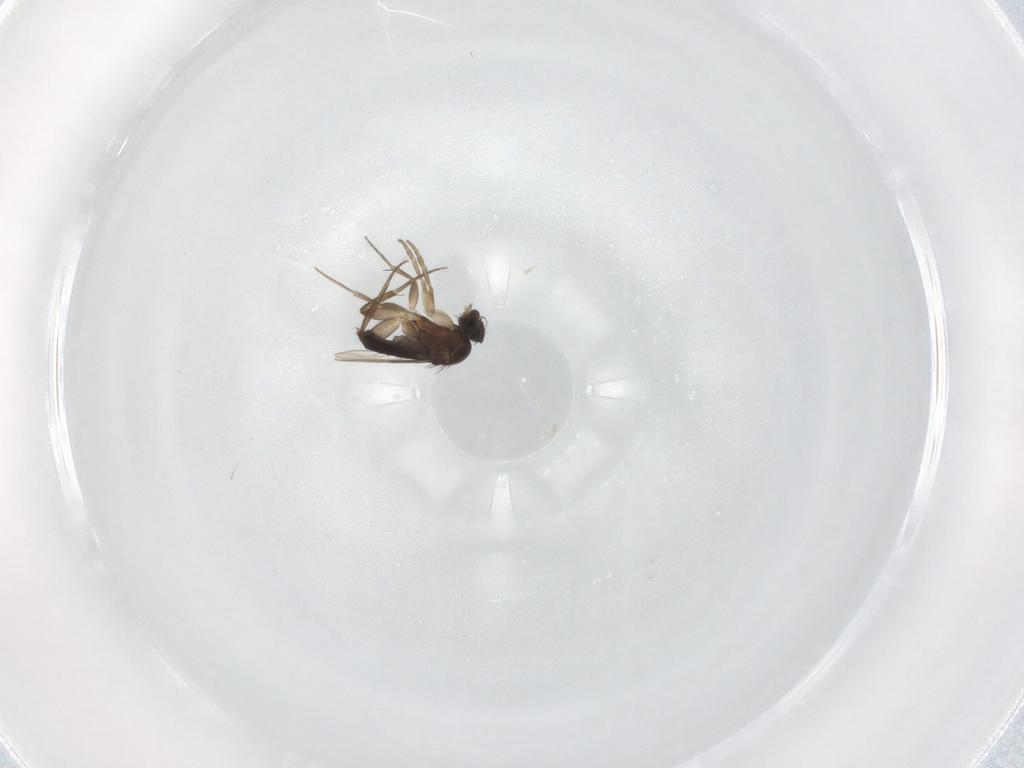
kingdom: Animalia
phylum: Arthropoda
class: Insecta
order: Diptera
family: Phoridae
